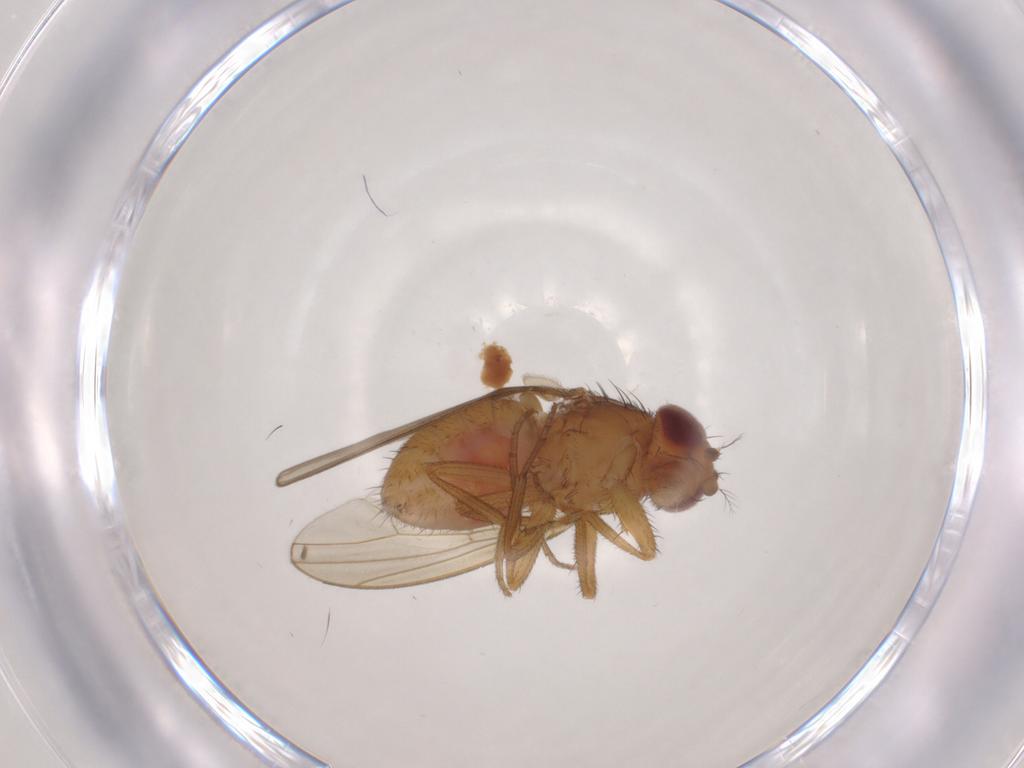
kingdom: Animalia
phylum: Arthropoda
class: Insecta
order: Diptera
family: Drosophilidae
